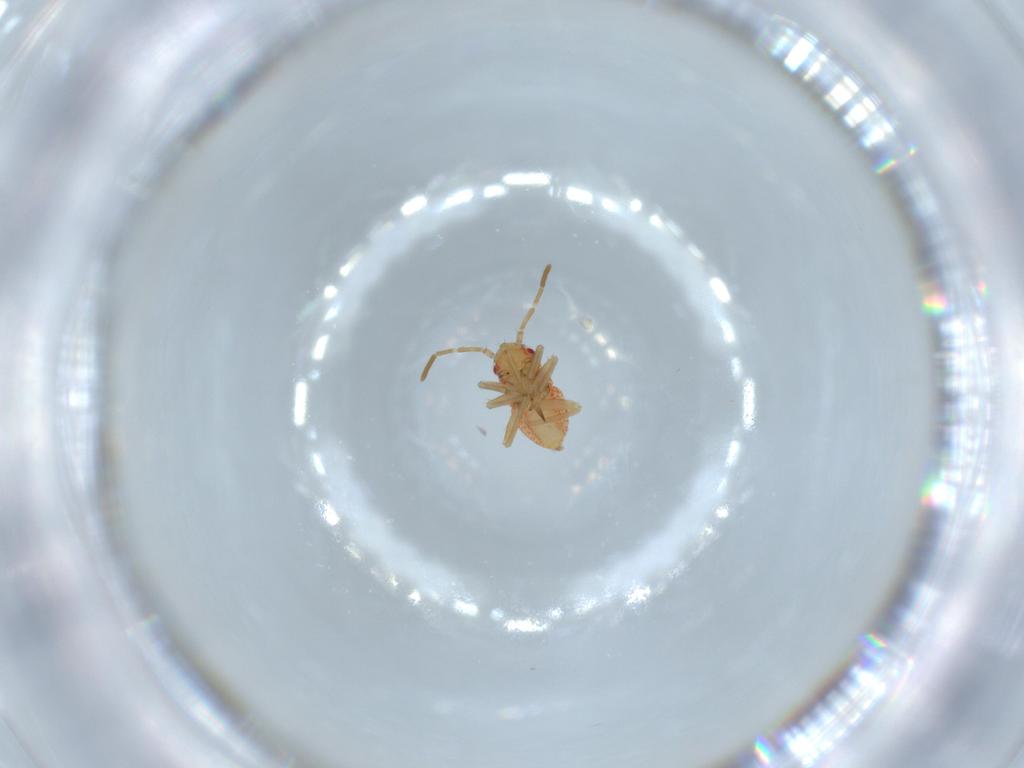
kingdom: Animalia
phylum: Arthropoda
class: Insecta
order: Hemiptera
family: Miridae
